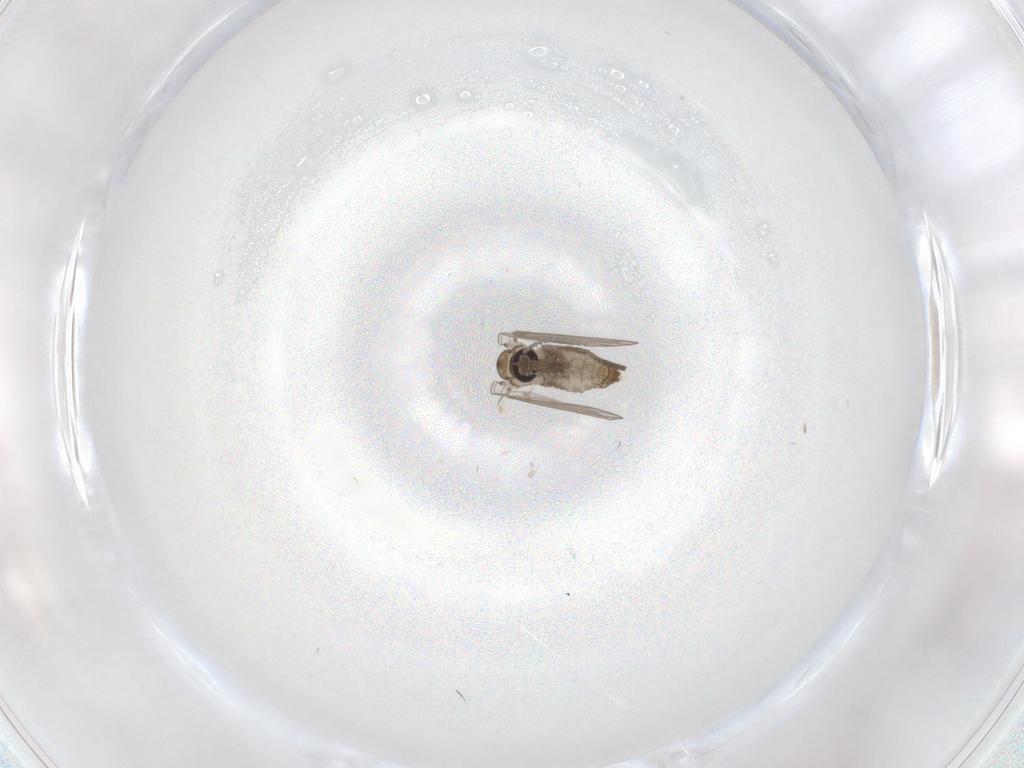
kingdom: Animalia
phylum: Arthropoda
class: Insecta
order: Diptera
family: Psychodidae
